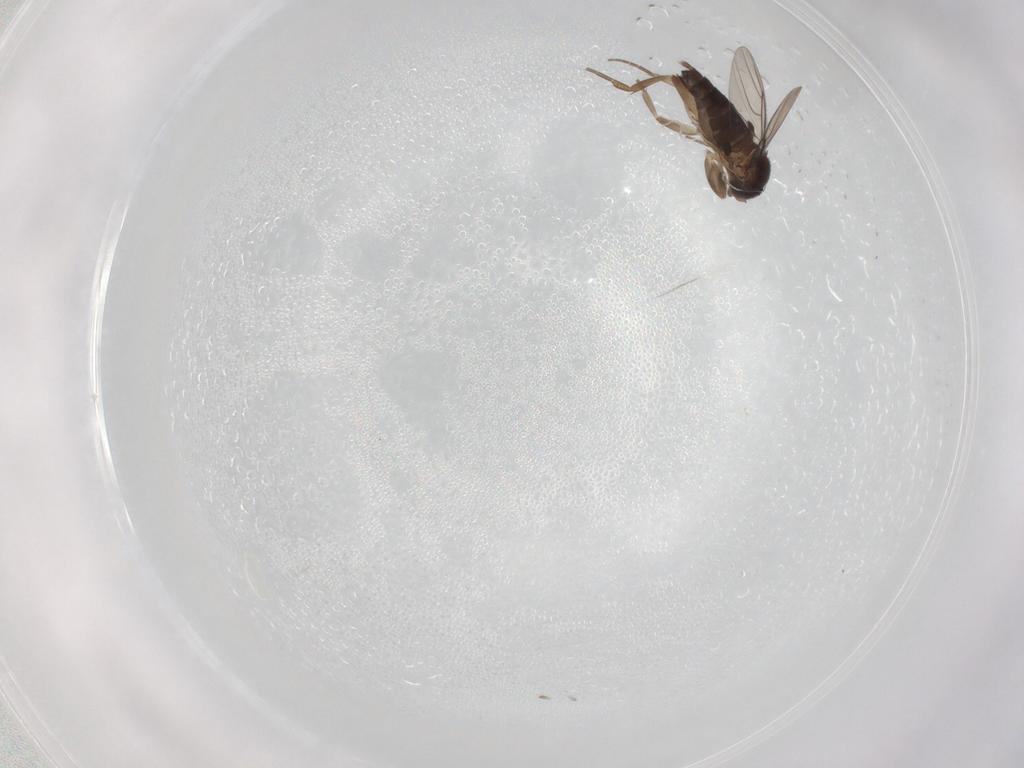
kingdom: Animalia
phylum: Arthropoda
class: Insecta
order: Diptera
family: Phoridae
